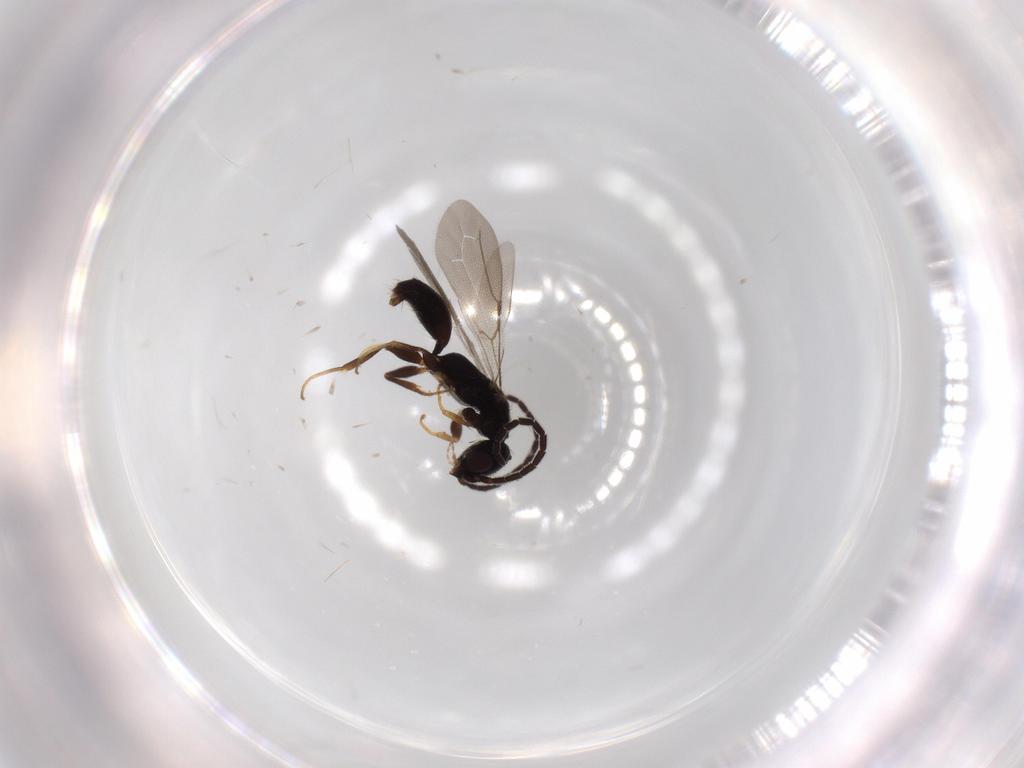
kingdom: Animalia
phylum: Arthropoda
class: Insecta
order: Hymenoptera
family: Bethylidae
